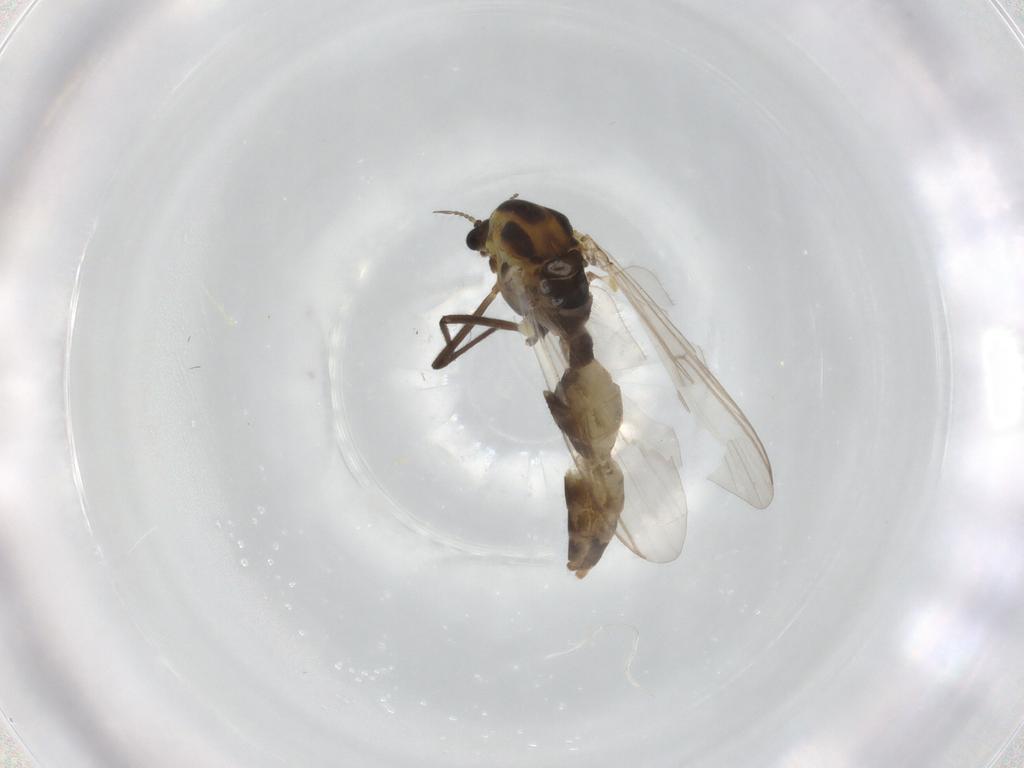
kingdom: Animalia
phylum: Arthropoda
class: Insecta
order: Diptera
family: Chironomidae
